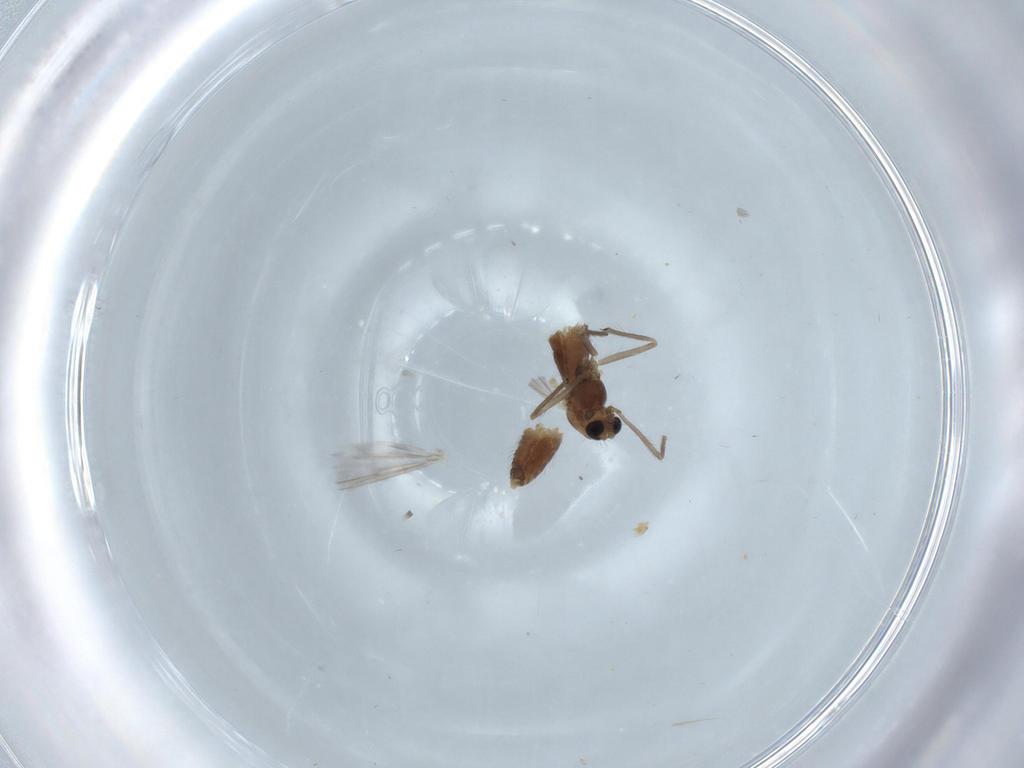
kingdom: Animalia
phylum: Arthropoda
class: Insecta
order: Diptera
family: Chironomidae
